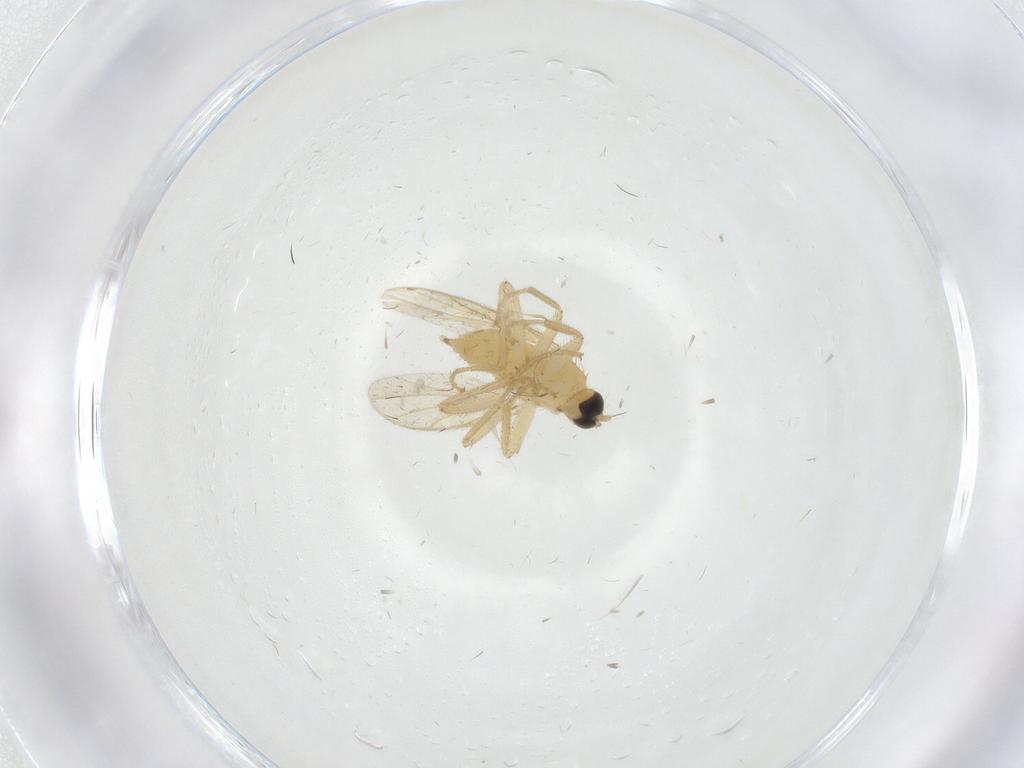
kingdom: Animalia
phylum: Arthropoda
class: Insecta
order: Diptera
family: Hybotidae
